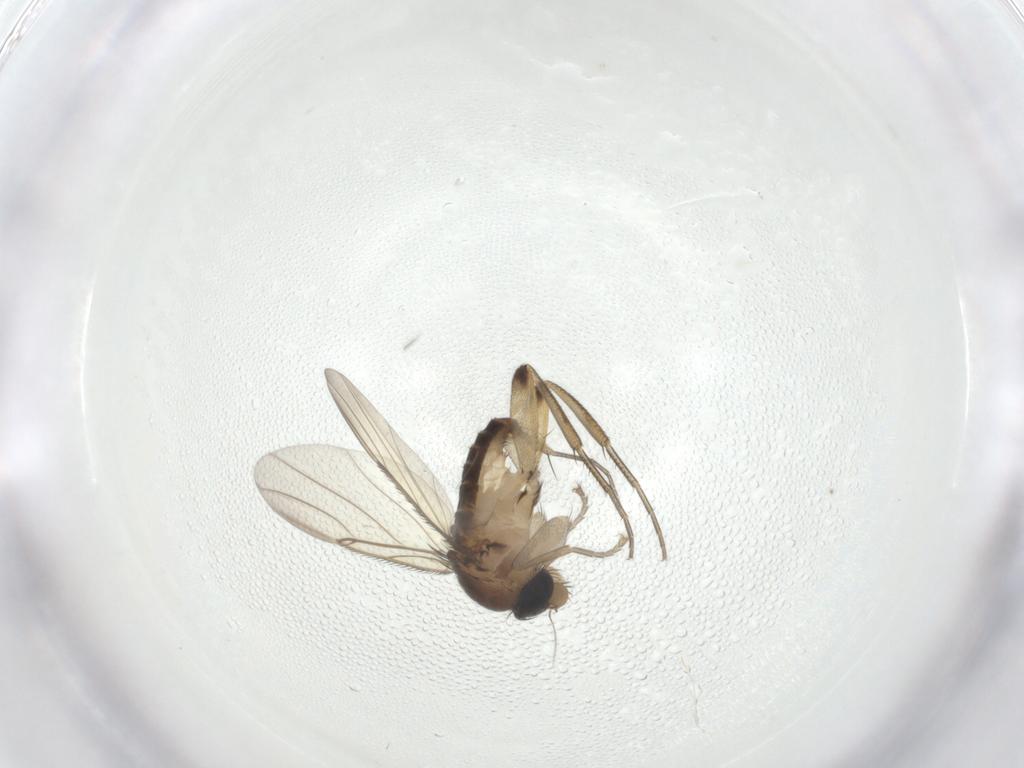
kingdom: Animalia
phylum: Arthropoda
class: Insecta
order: Diptera
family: Phoridae
